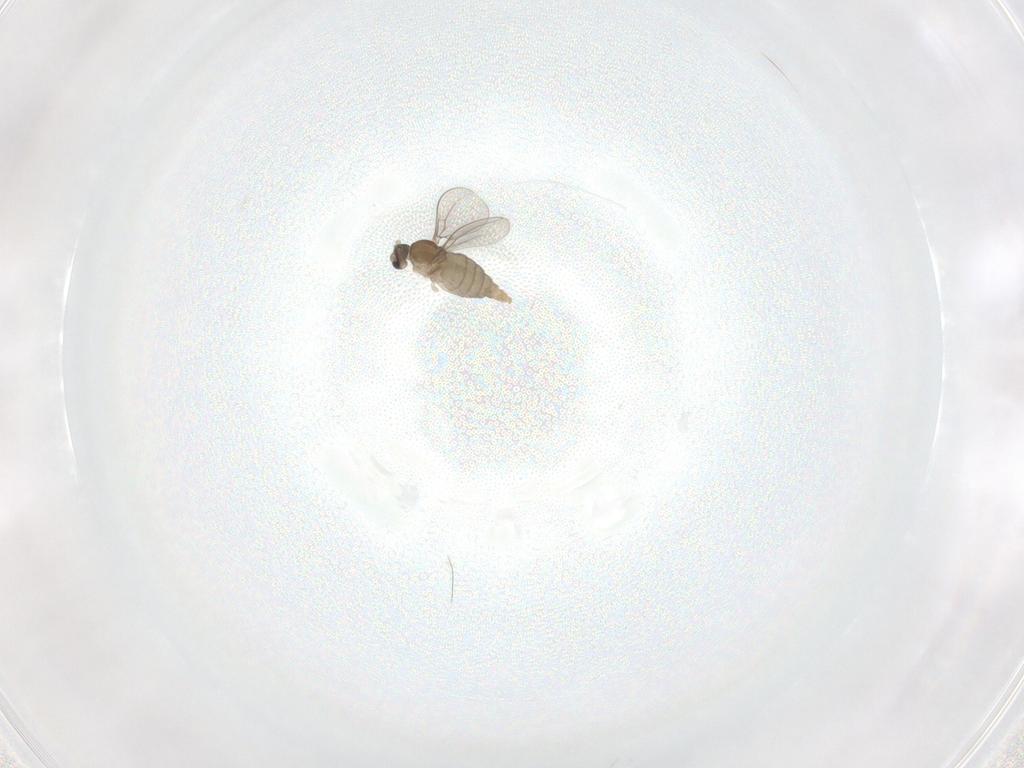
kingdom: Animalia
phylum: Arthropoda
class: Insecta
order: Diptera
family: Cecidomyiidae
